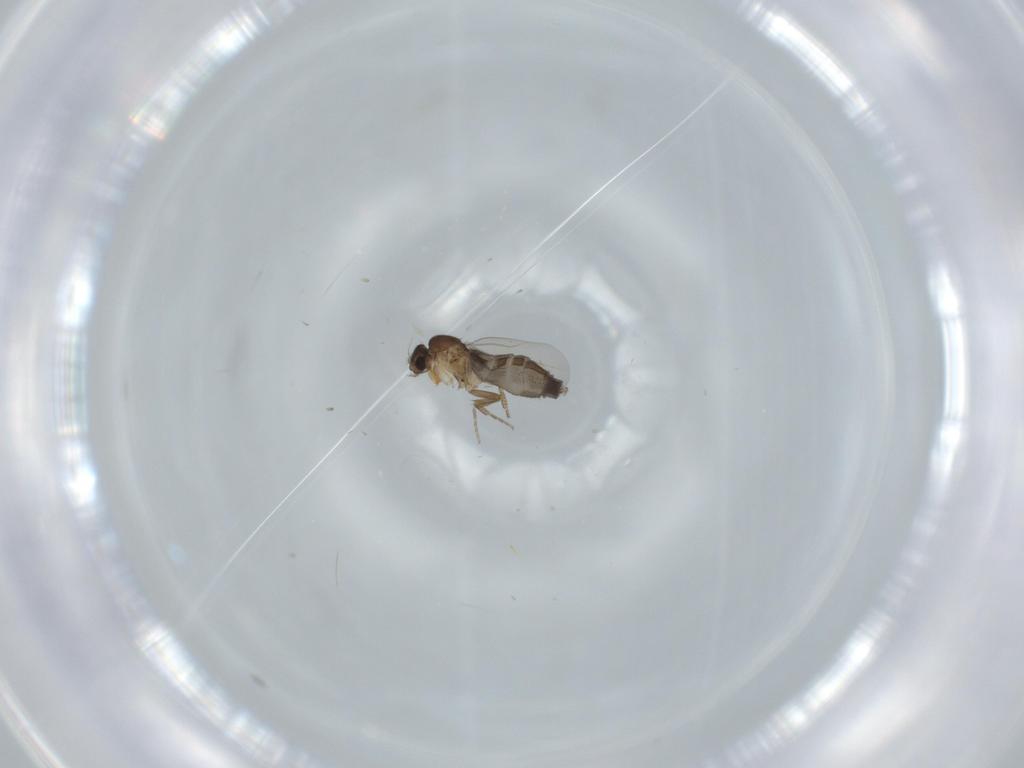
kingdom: Animalia
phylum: Arthropoda
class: Insecta
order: Diptera
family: Phoridae
